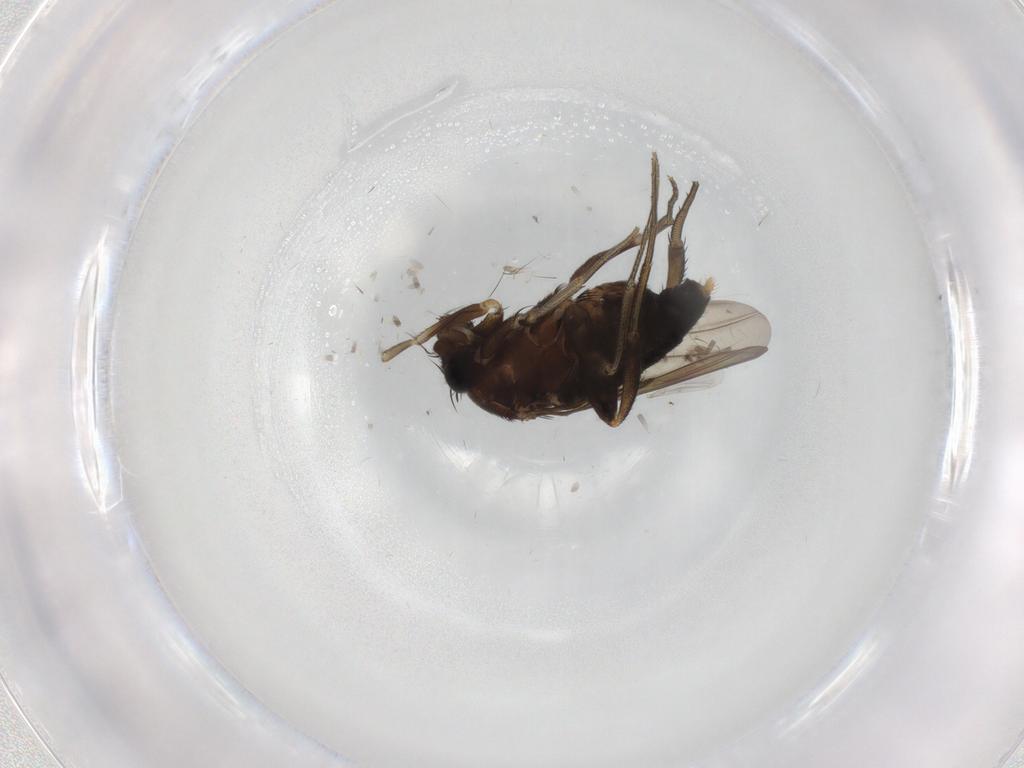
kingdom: Animalia
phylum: Arthropoda
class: Insecta
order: Diptera
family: Phoridae
